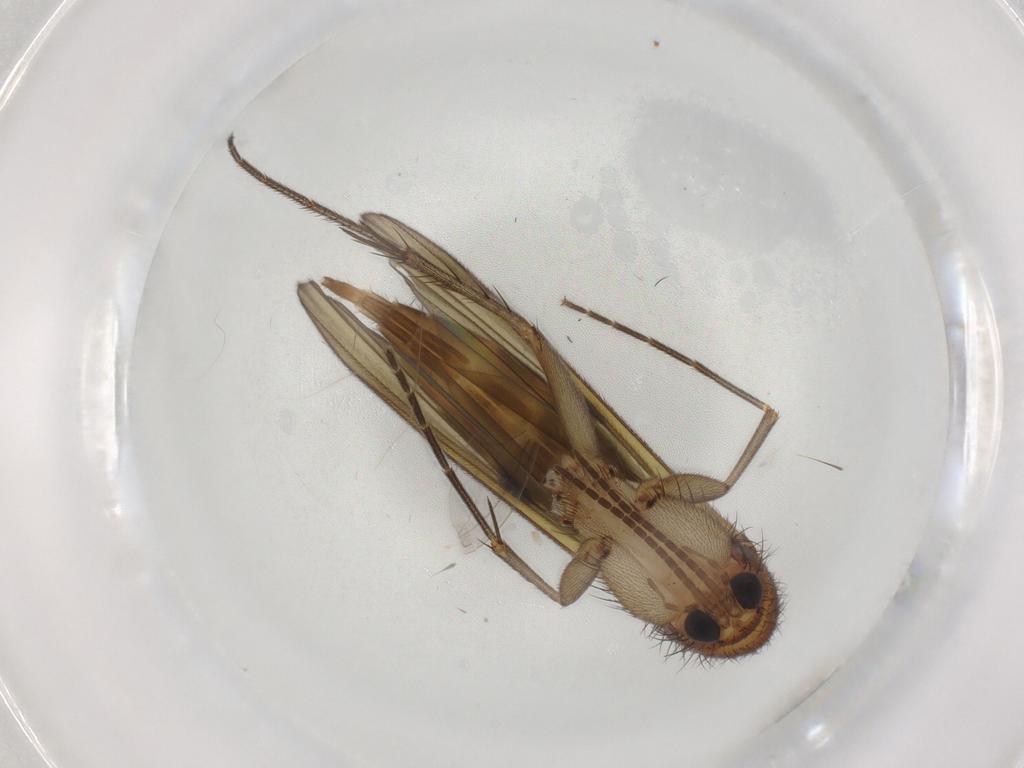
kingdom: Animalia
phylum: Arthropoda
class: Insecta
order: Diptera
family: Mycetophilidae
